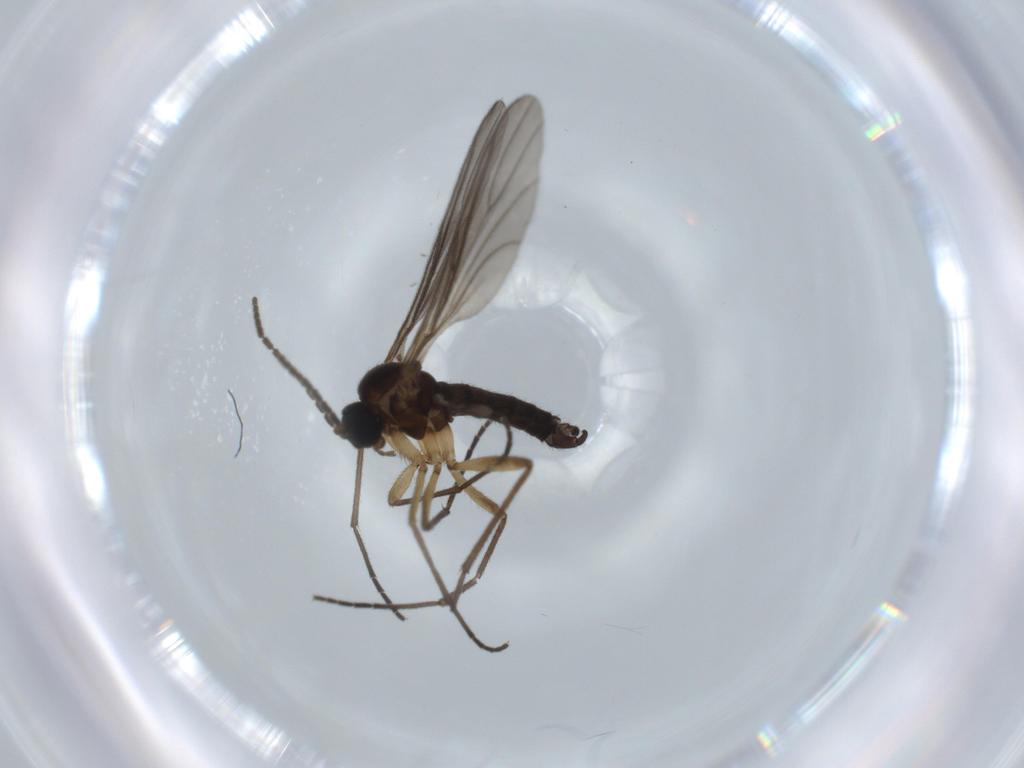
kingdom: Animalia
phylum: Arthropoda
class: Insecta
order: Diptera
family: Sciaridae
